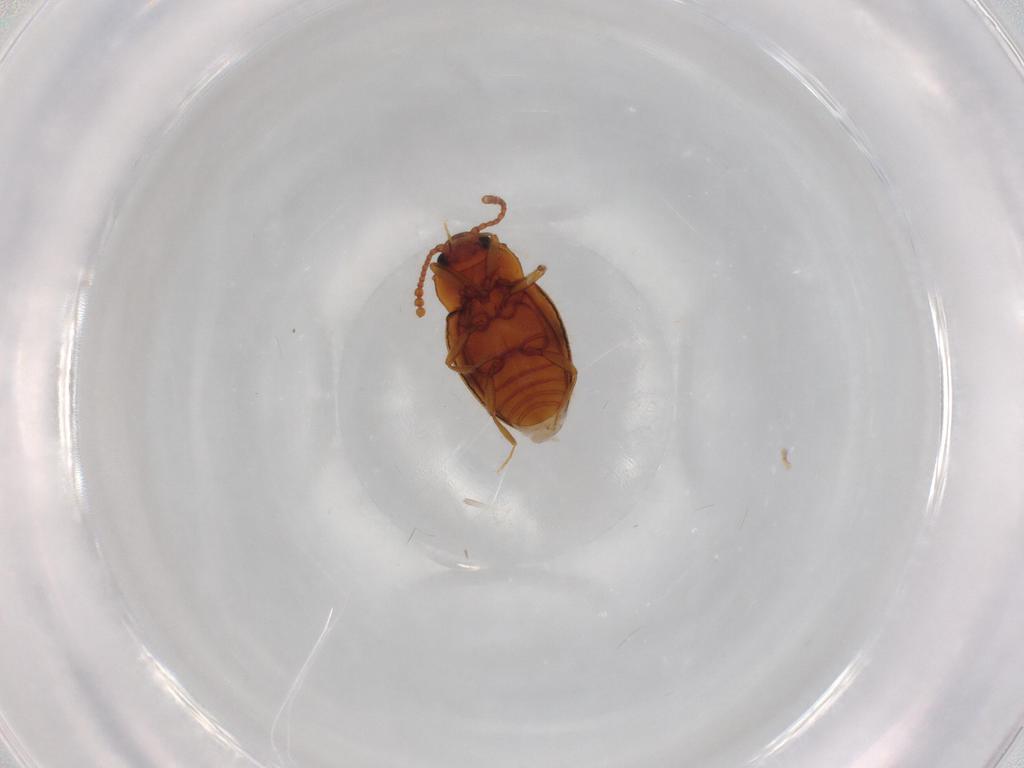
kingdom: Animalia
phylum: Arthropoda
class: Insecta
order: Coleoptera
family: Erotylidae
